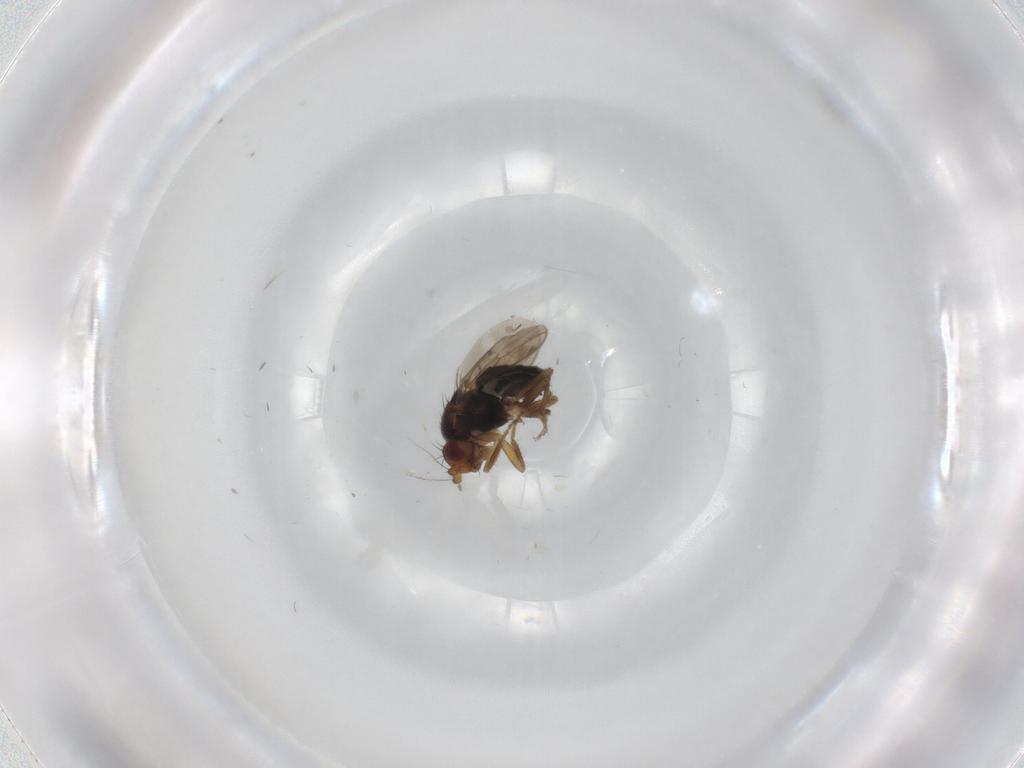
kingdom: Animalia
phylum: Arthropoda
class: Insecta
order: Diptera
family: Sphaeroceridae
